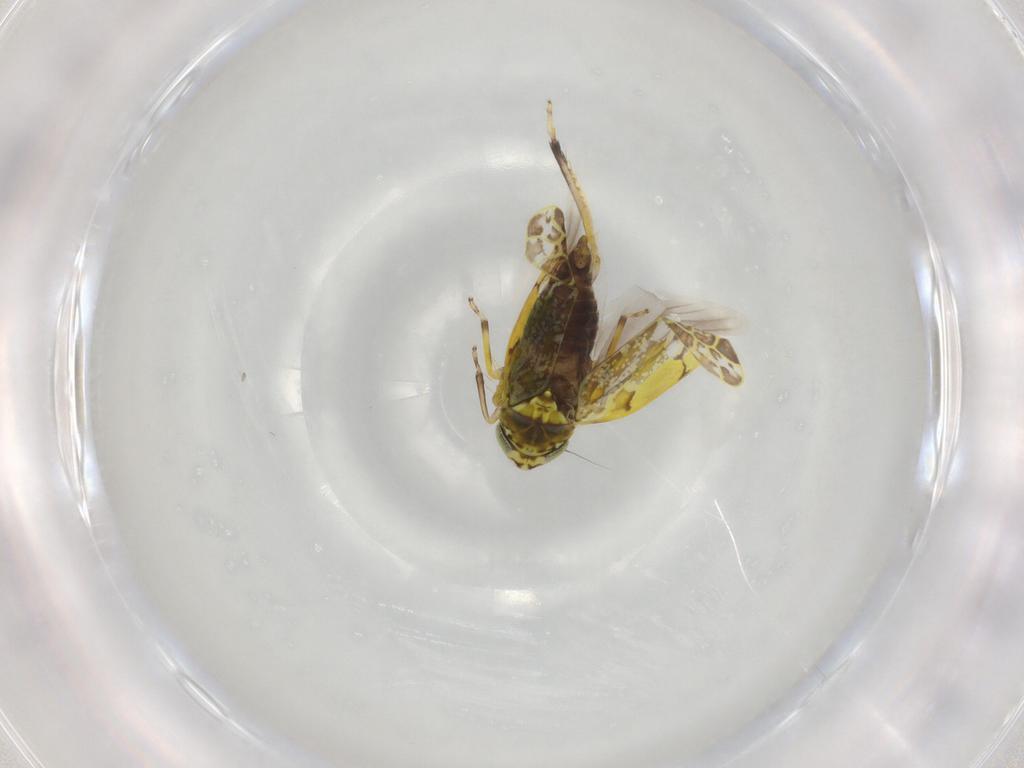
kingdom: Animalia
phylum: Arthropoda
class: Insecta
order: Hemiptera
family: Cicadellidae
